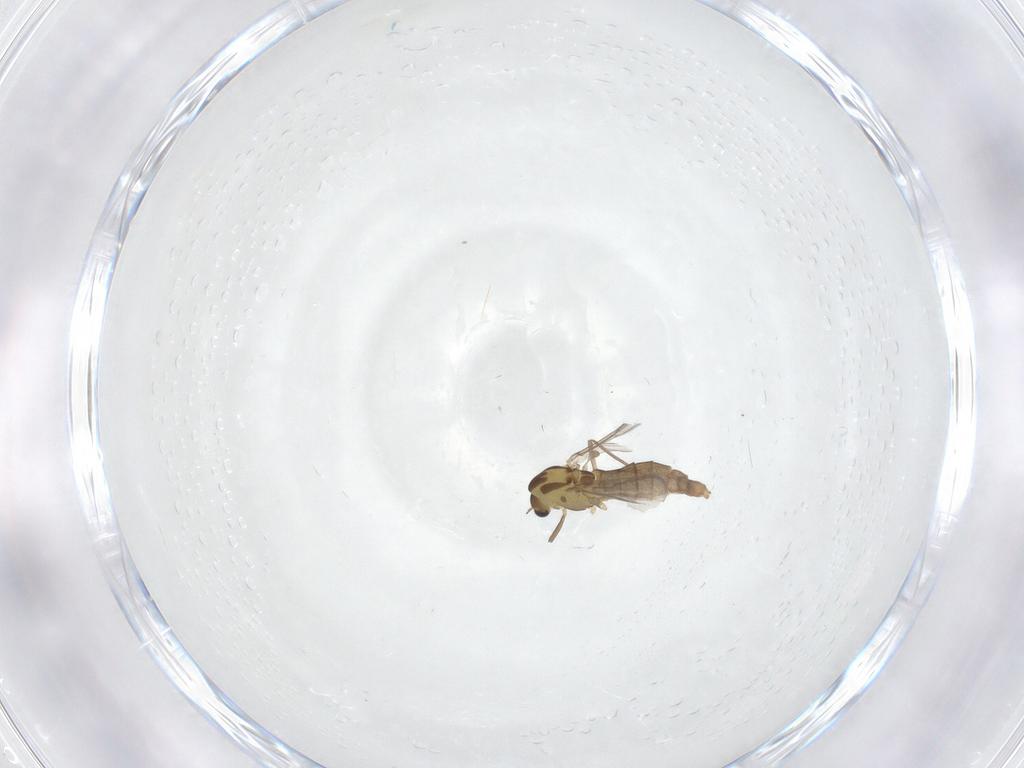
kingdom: Animalia
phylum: Arthropoda
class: Insecta
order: Diptera
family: Chironomidae
